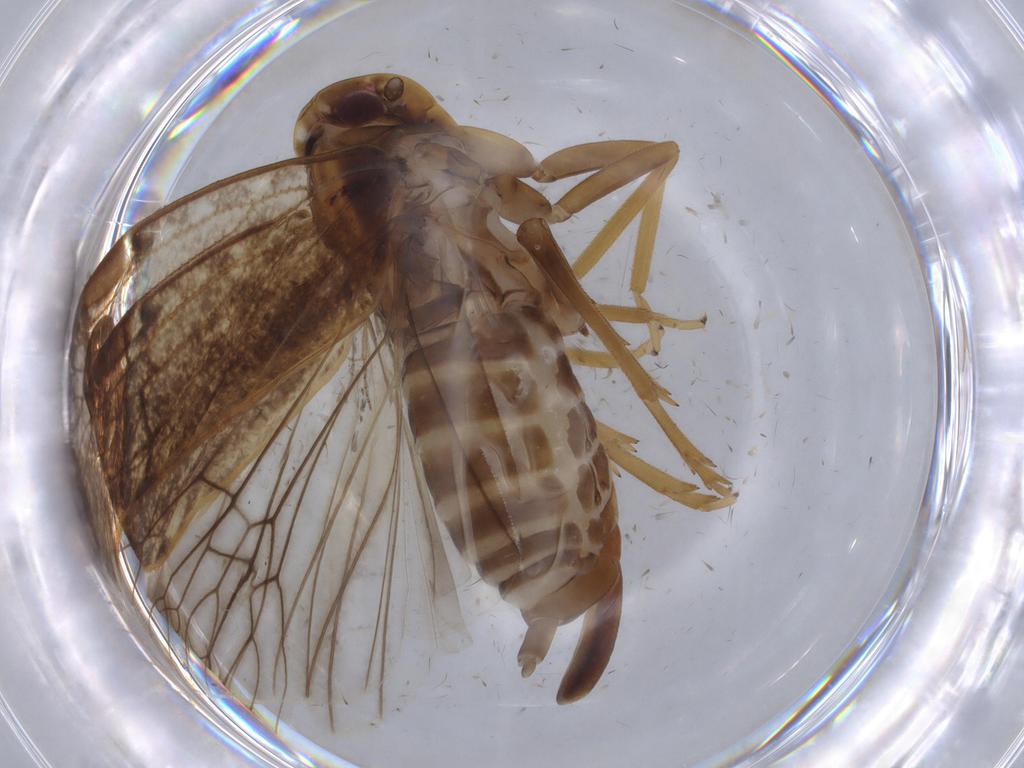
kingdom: Animalia
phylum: Arthropoda
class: Insecta
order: Hemiptera
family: Cixiidae
